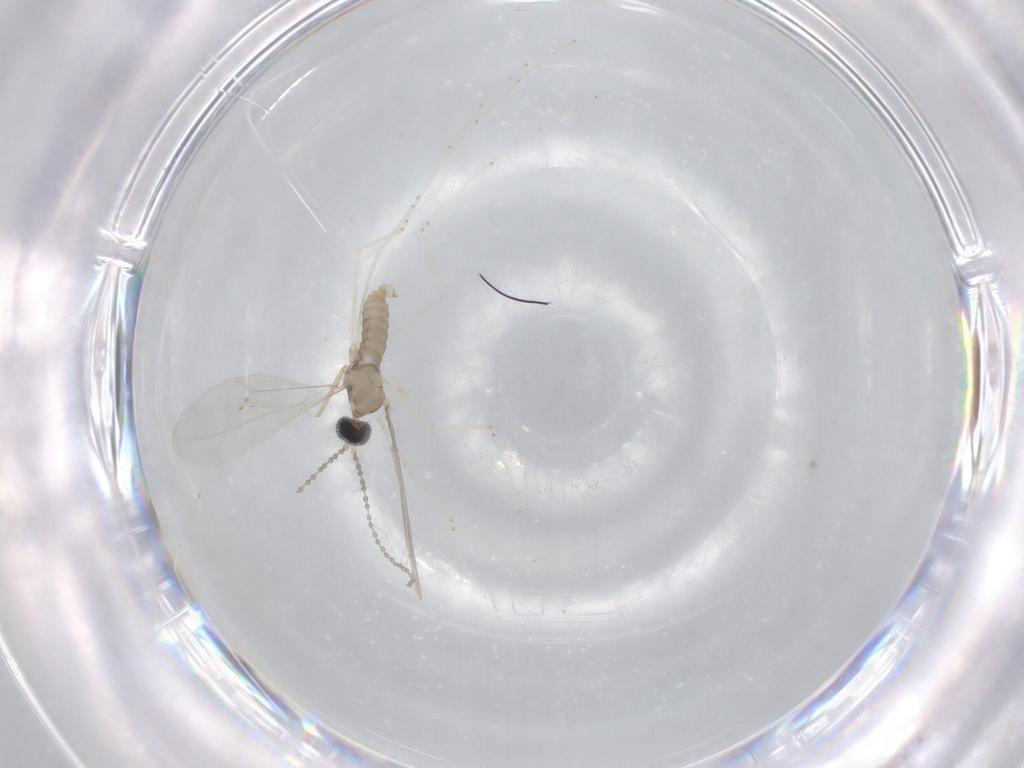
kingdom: Animalia
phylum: Arthropoda
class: Insecta
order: Diptera
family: Cecidomyiidae
